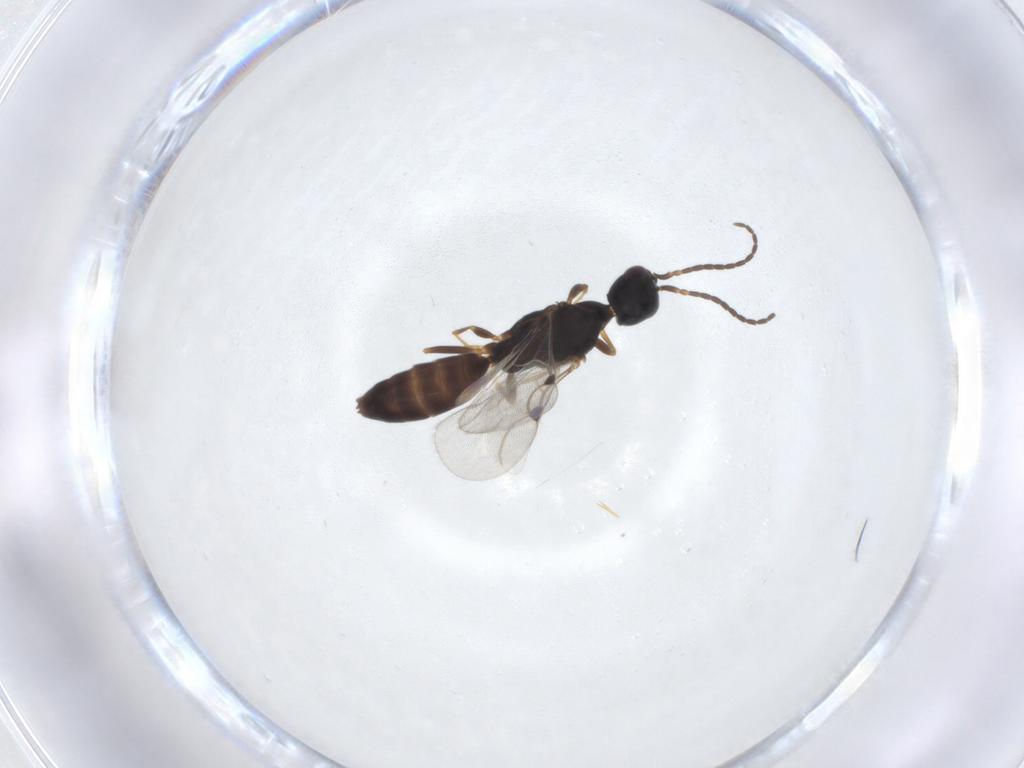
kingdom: Animalia
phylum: Arthropoda
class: Insecta
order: Hymenoptera
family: Bethylidae
